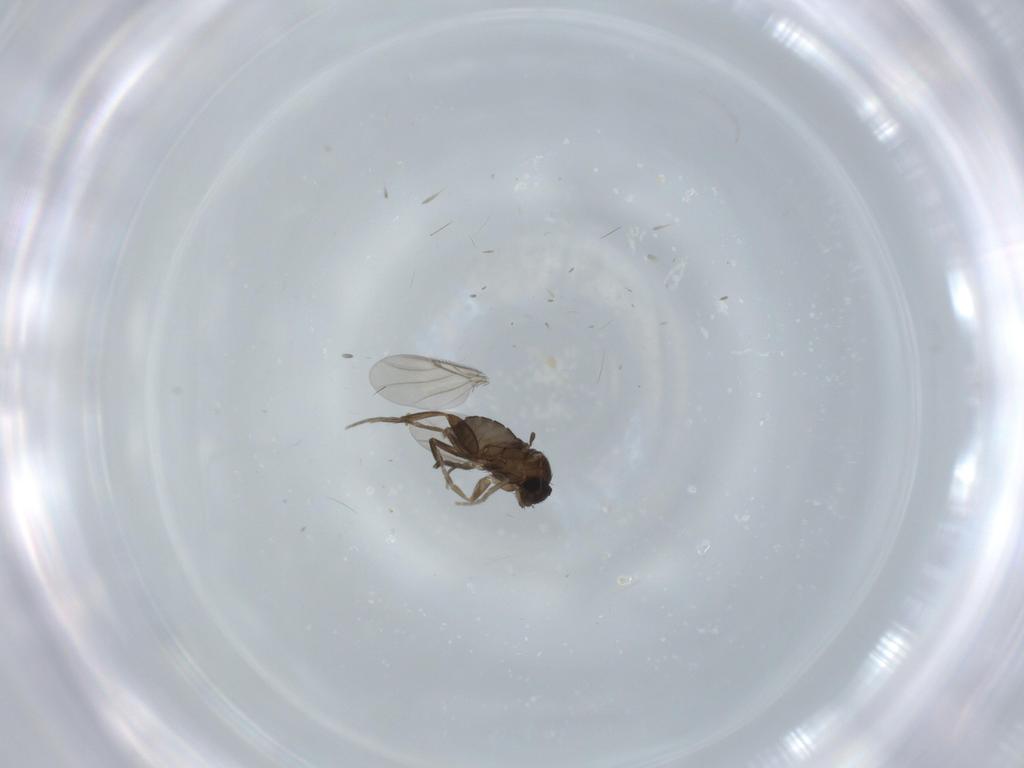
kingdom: Animalia
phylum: Arthropoda
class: Insecta
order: Diptera
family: Phoridae
